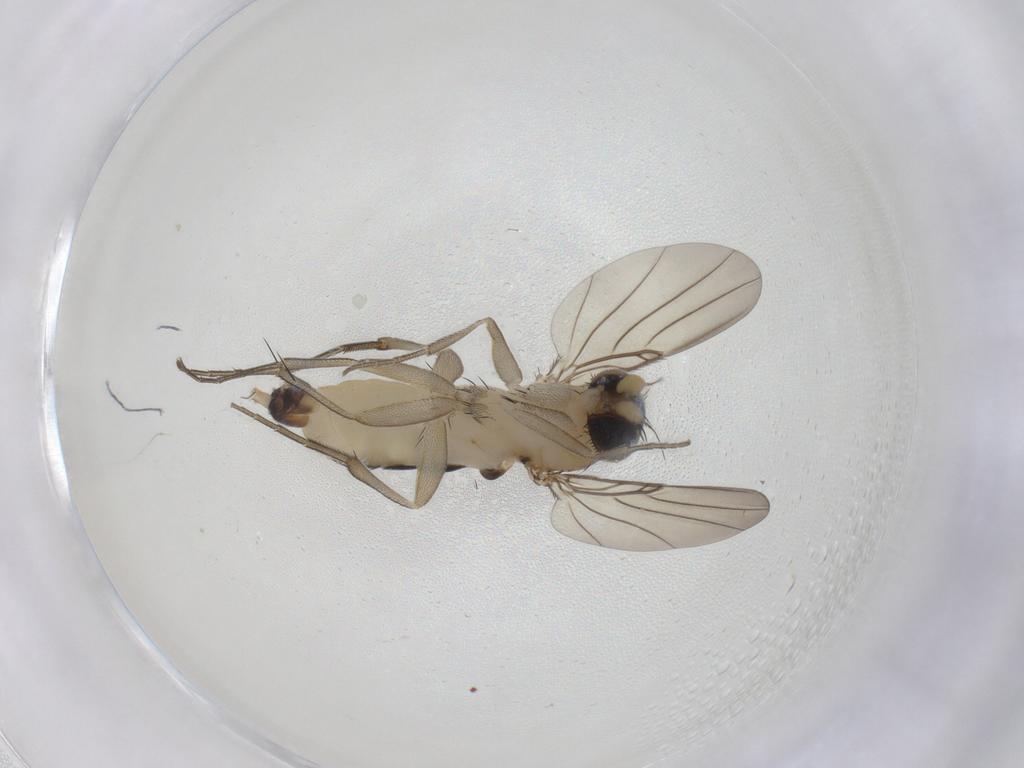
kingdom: Animalia
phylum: Arthropoda
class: Insecta
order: Diptera
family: Phoridae
